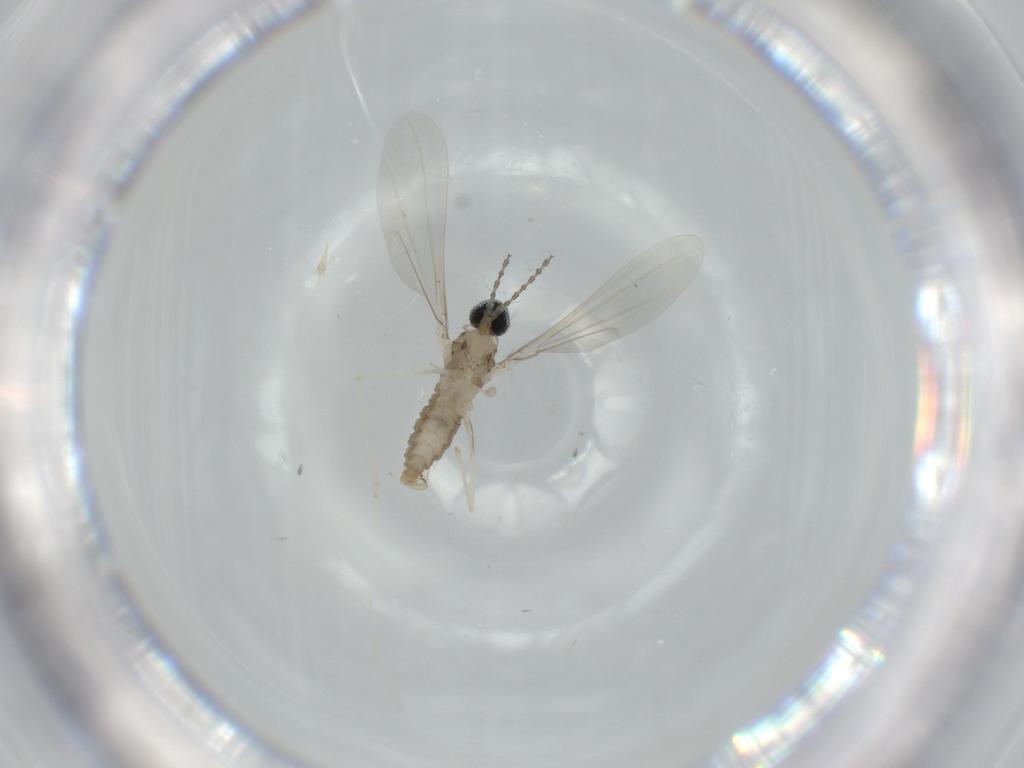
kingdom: Animalia
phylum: Arthropoda
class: Insecta
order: Diptera
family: Cecidomyiidae
